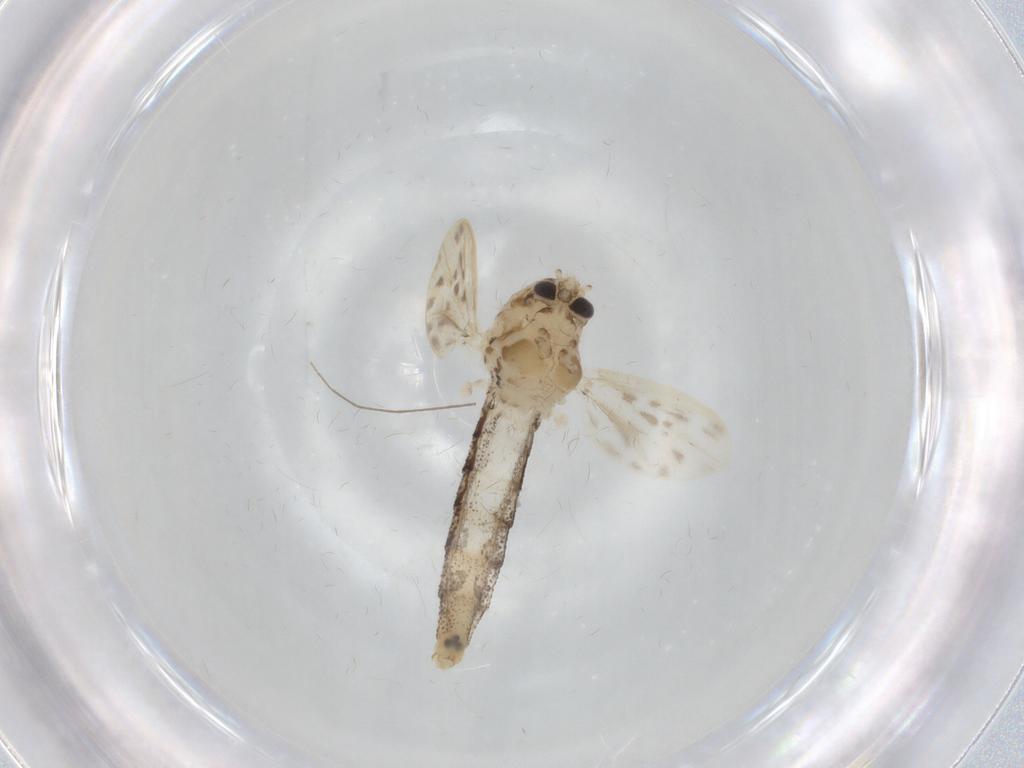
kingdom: Animalia
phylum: Arthropoda
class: Insecta
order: Diptera
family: Chaoboridae
